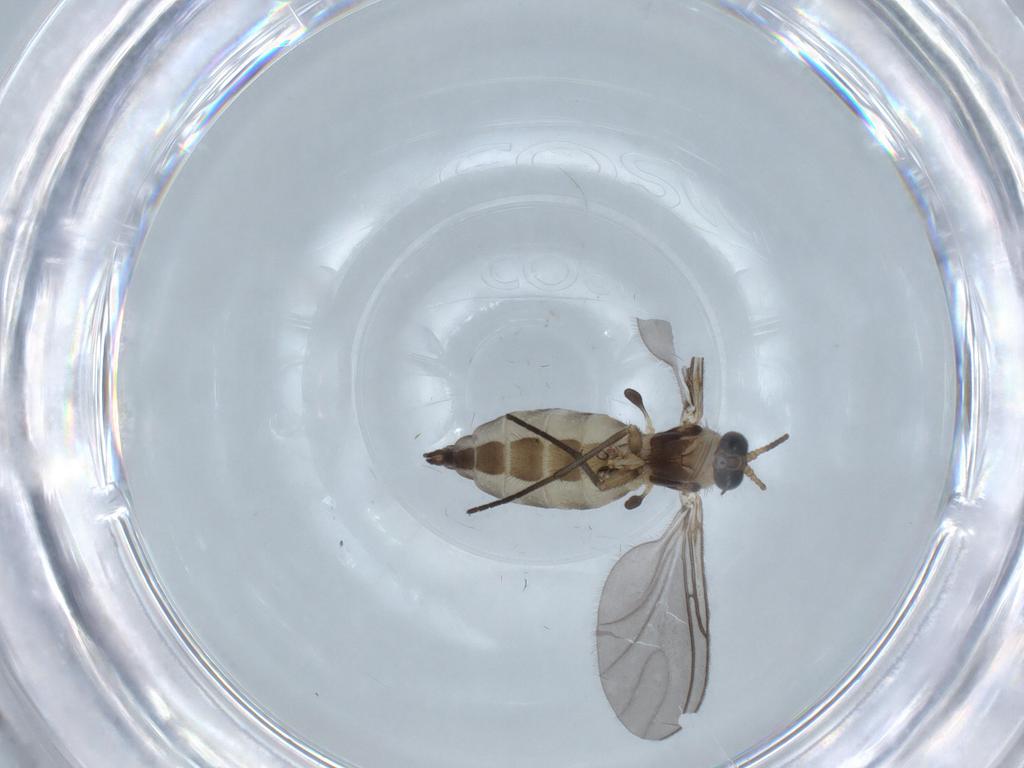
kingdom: Animalia
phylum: Arthropoda
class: Insecta
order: Diptera
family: Sciaridae
